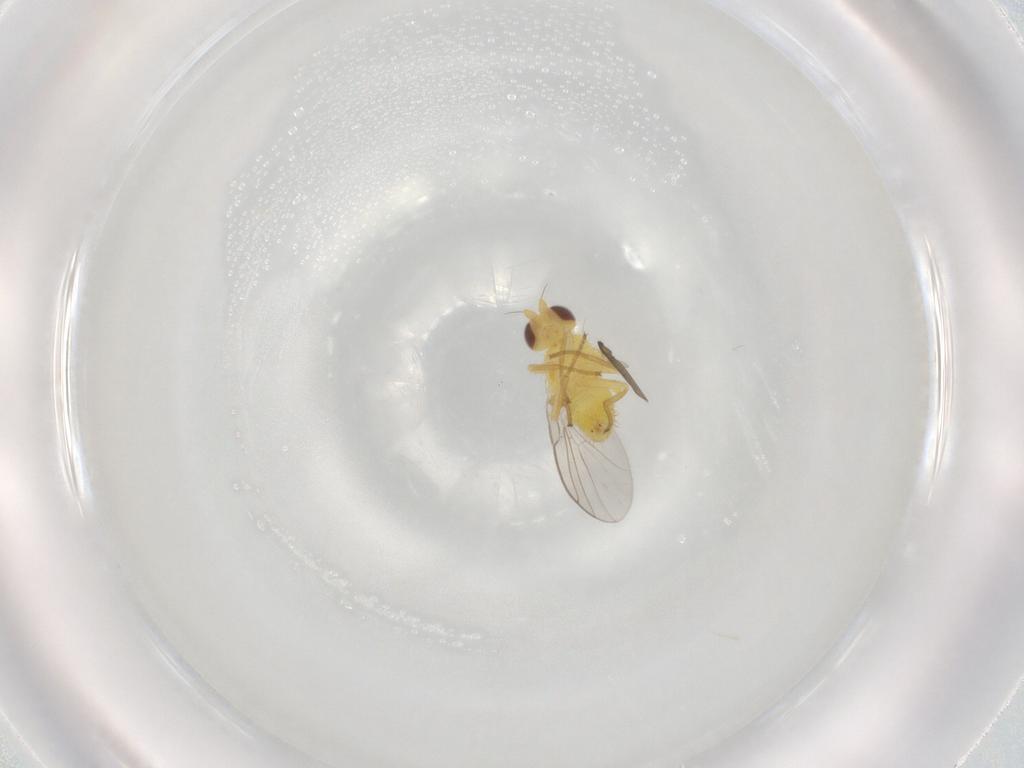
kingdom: Animalia
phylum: Arthropoda
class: Insecta
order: Diptera
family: Agromyzidae
